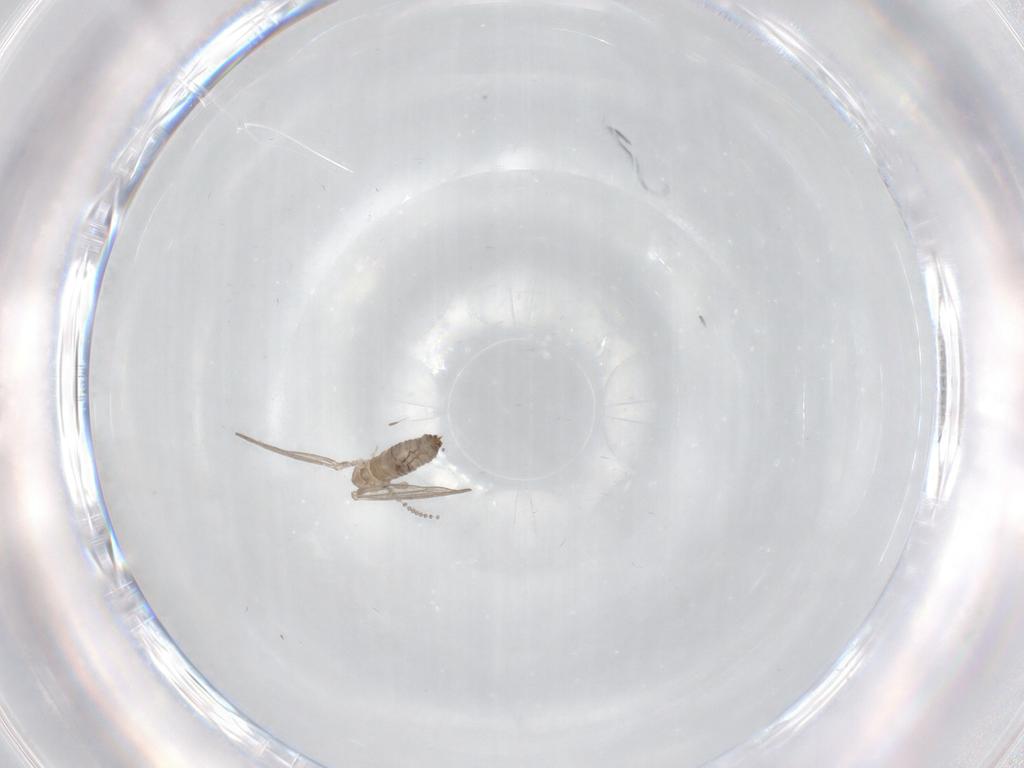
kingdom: Animalia
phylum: Arthropoda
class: Insecta
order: Diptera
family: Psychodidae
